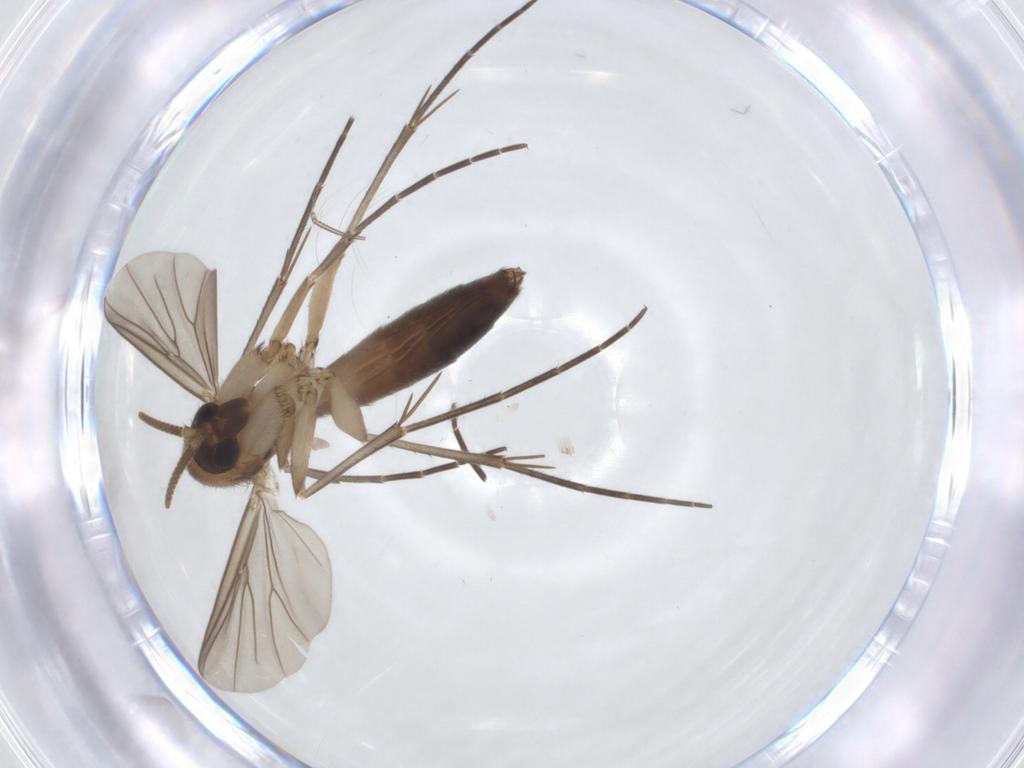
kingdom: Animalia
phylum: Arthropoda
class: Insecta
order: Diptera
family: Mycetophilidae
